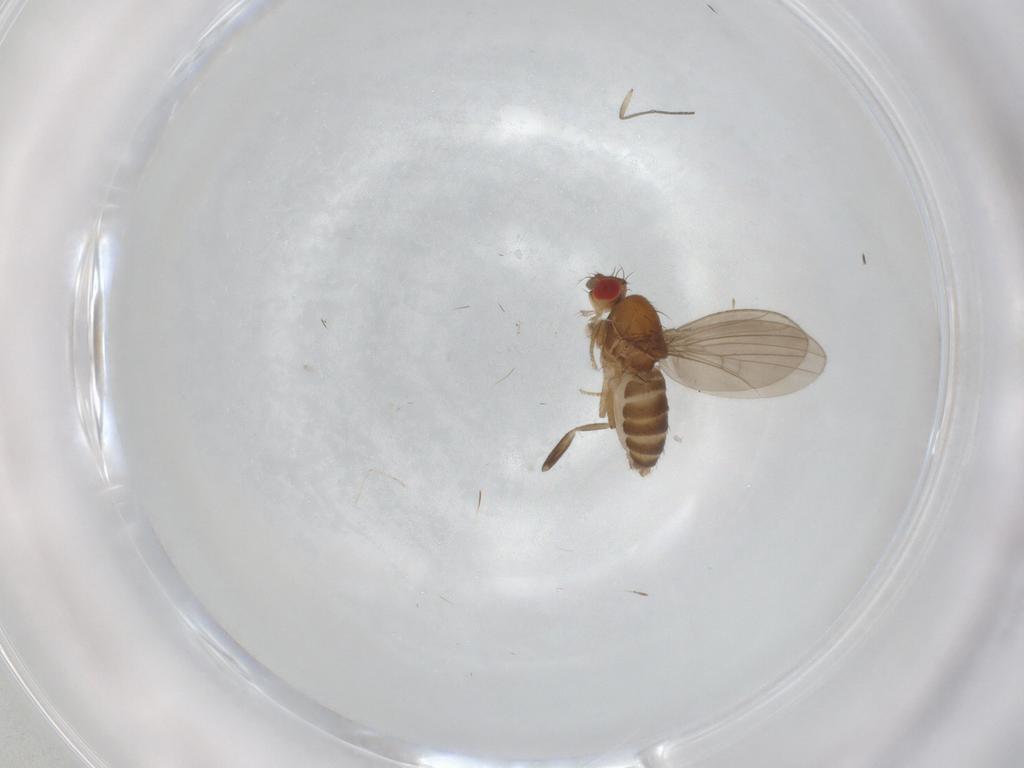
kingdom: Animalia
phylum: Arthropoda
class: Insecta
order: Diptera
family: Drosophilidae
